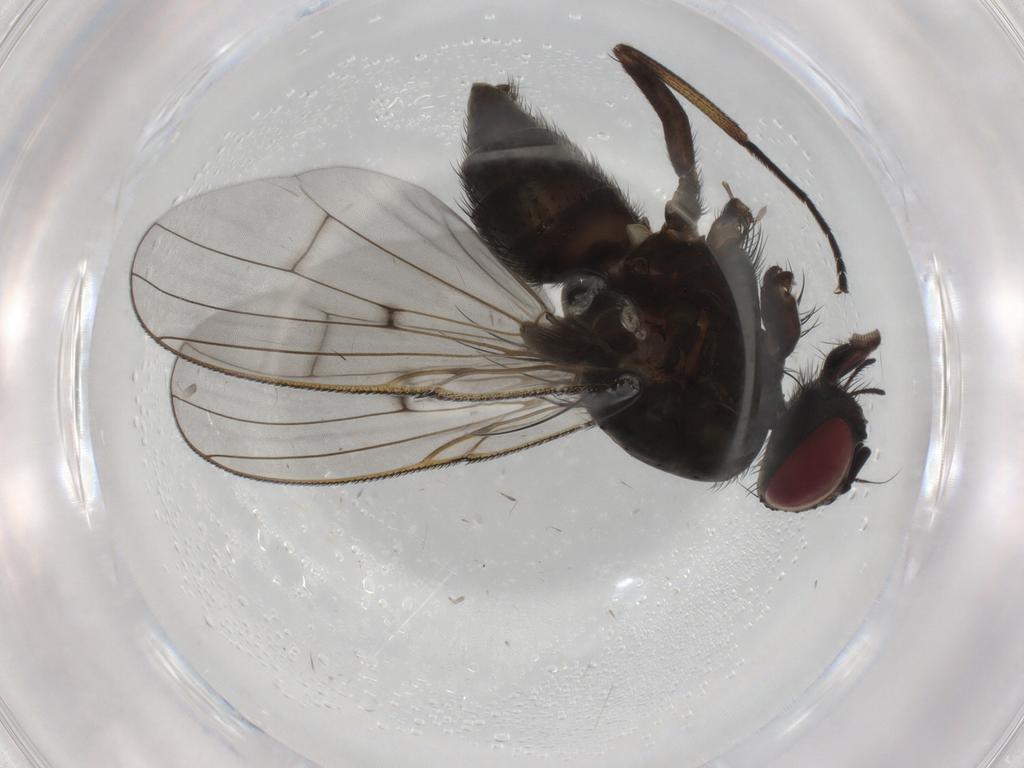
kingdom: Animalia
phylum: Arthropoda
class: Insecta
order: Diptera
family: Muscidae
